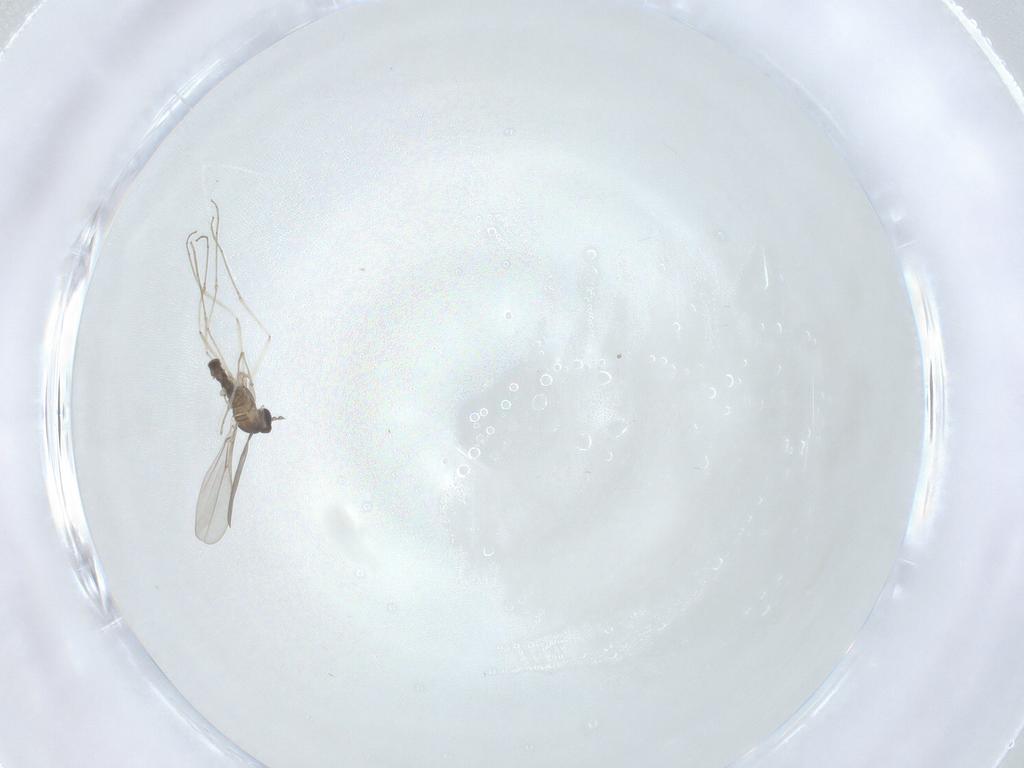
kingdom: Animalia
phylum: Arthropoda
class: Insecta
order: Diptera
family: Cecidomyiidae
